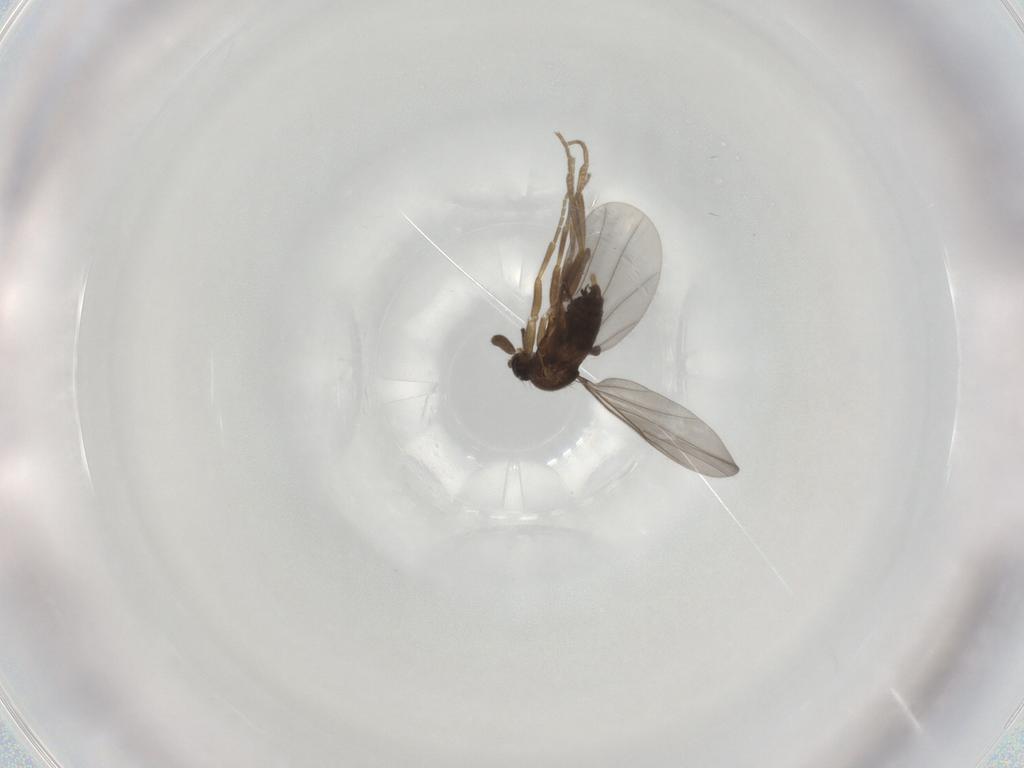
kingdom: Animalia
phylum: Arthropoda
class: Insecta
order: Diptera
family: Phoridae
